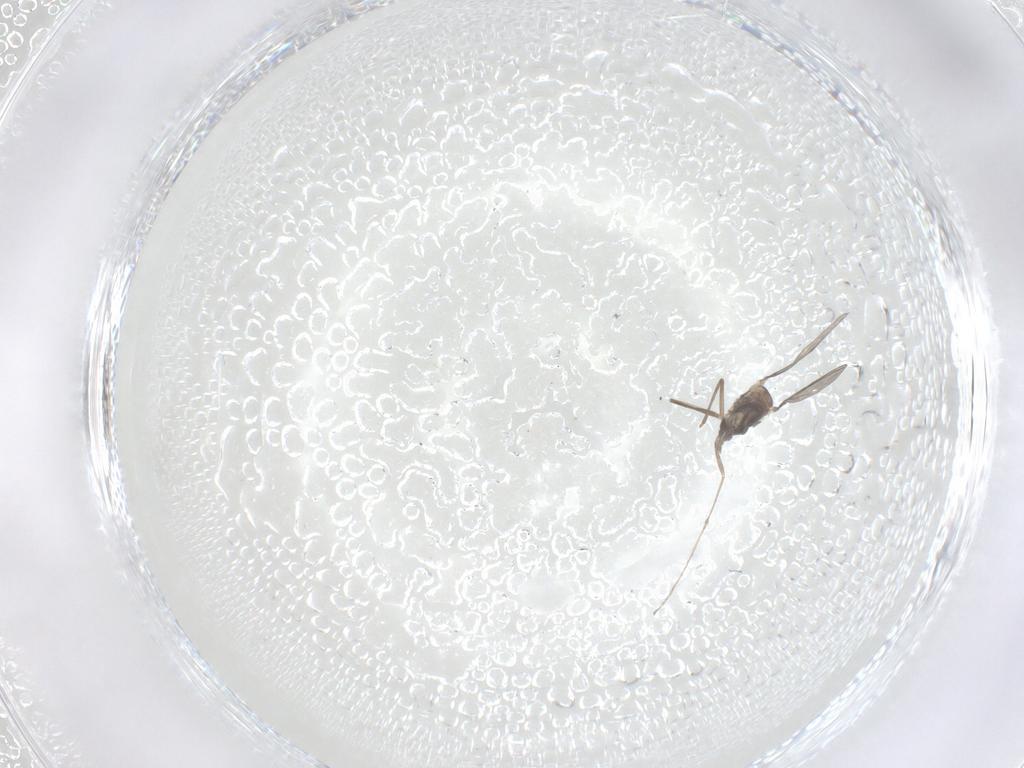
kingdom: Animalia
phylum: Arthropoda
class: Insecta
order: Diptera
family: Cecidomyiidae
